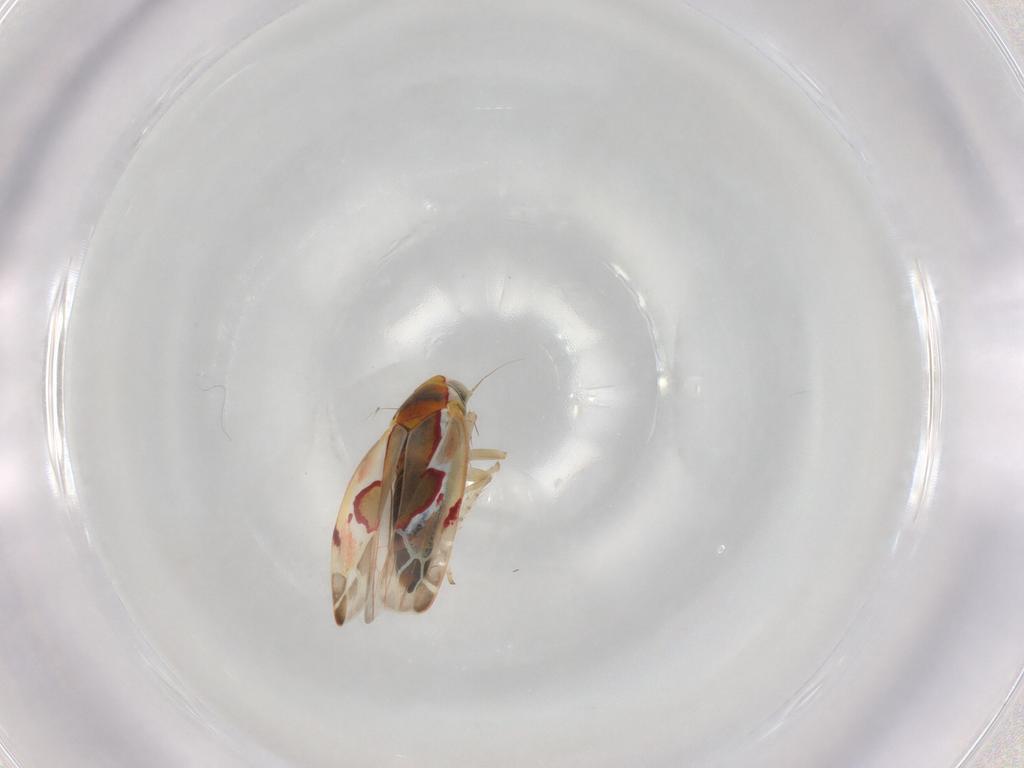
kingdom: Animalia
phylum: Arthropoda
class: Insecta
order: Hemiptera
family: Cicadellidae
